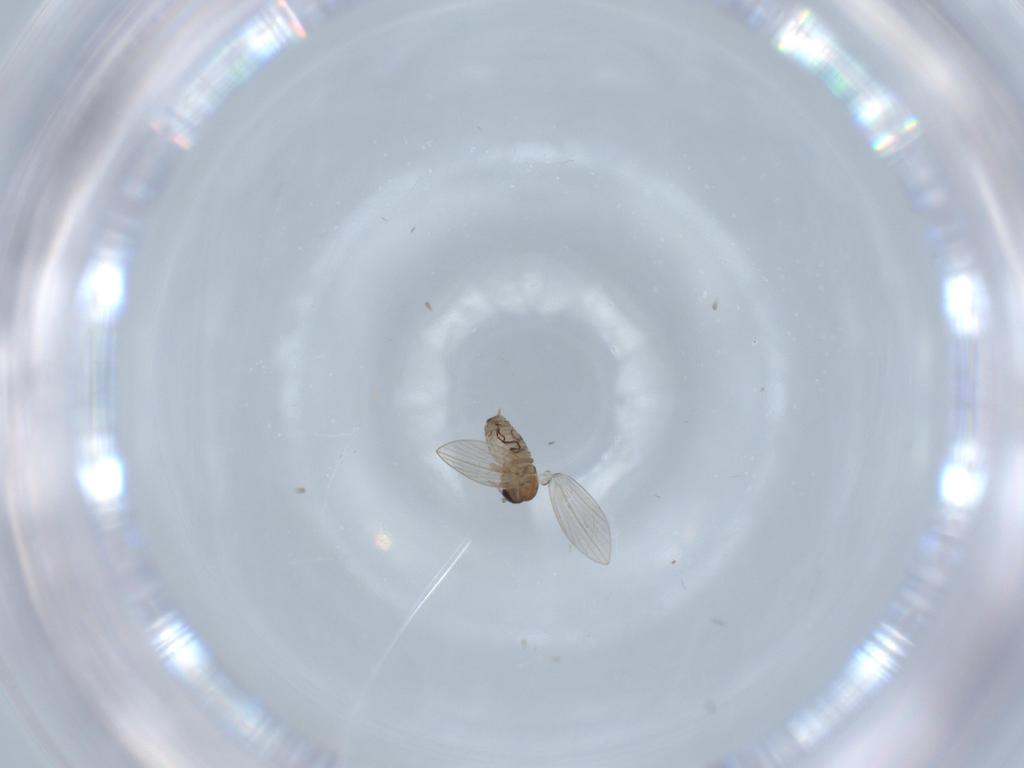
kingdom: Animalia
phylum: Arthropoda
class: Insecta
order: Diptera
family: Psychodidae
